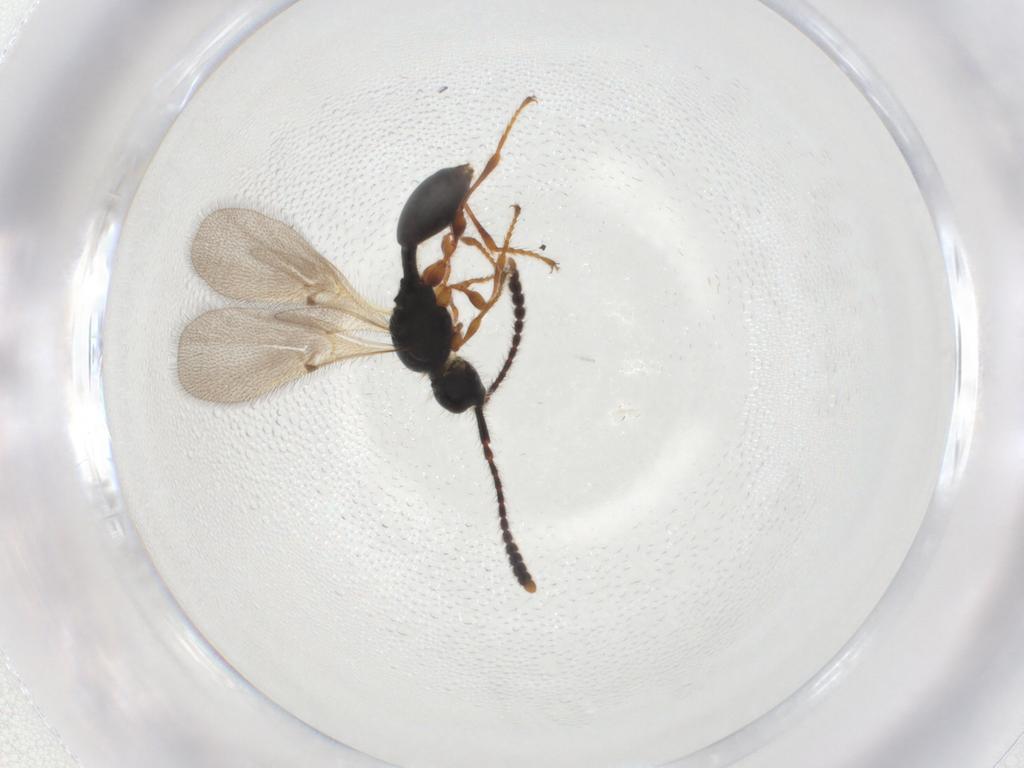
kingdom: Animalia
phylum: Arthropoda
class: Insecta
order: Hymenoptera
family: Diapriidae
